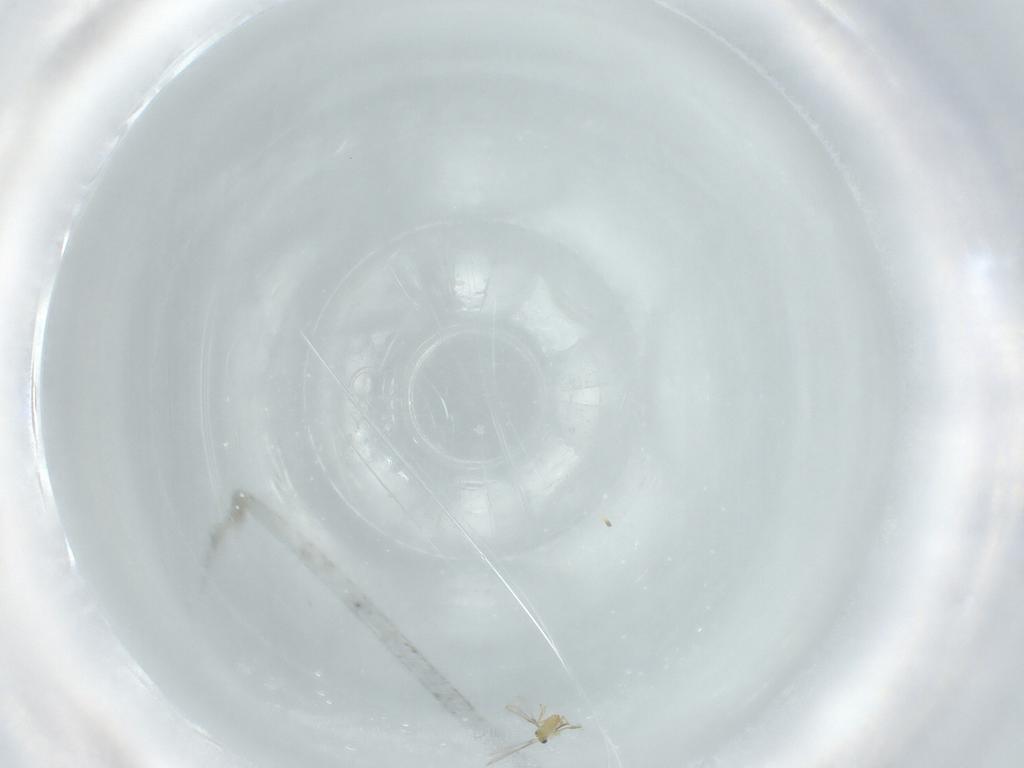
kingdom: Animalia
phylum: Arthropoda
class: Insecta
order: Hymenoptera
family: Mymaridae
